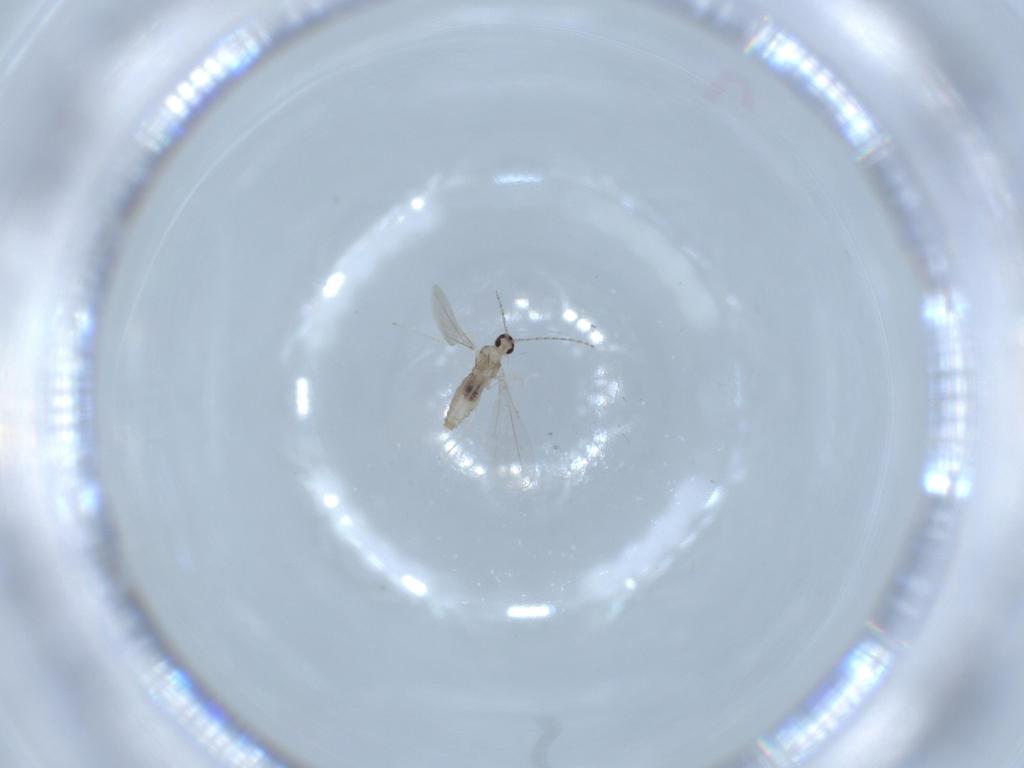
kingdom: Animalia
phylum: Arthropoda
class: Insecta
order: Diptera
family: Cecidomyiidae
